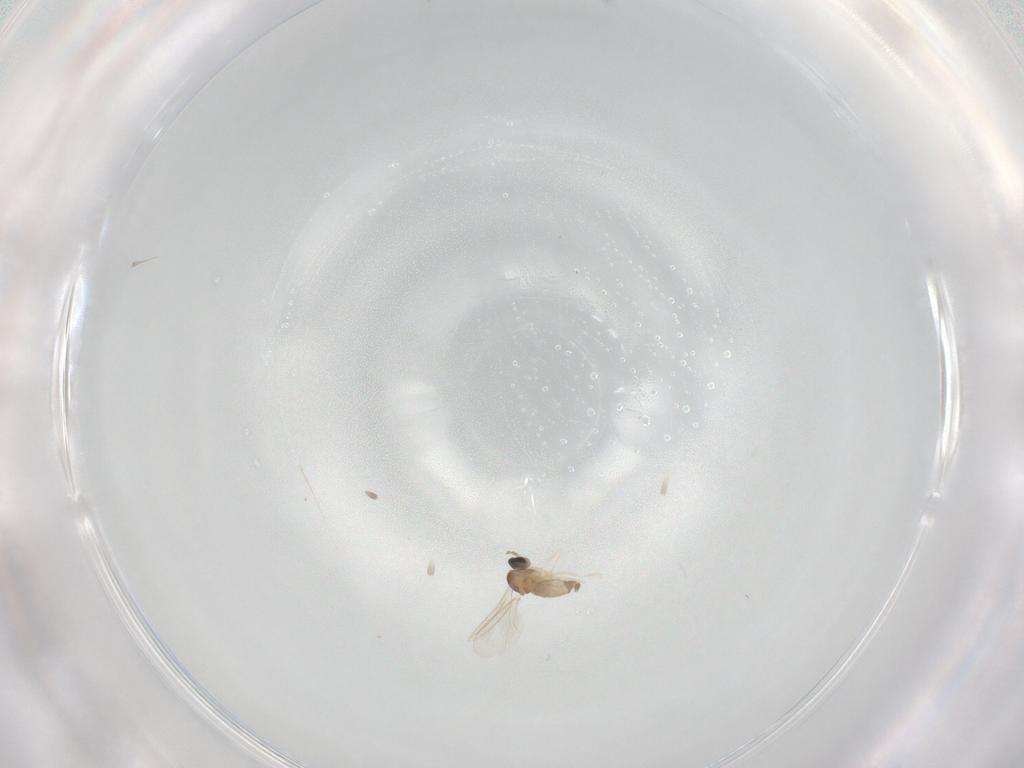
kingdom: Animalia
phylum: Arthropoda
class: Insecta
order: Diptera
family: Cecidomyiidae
